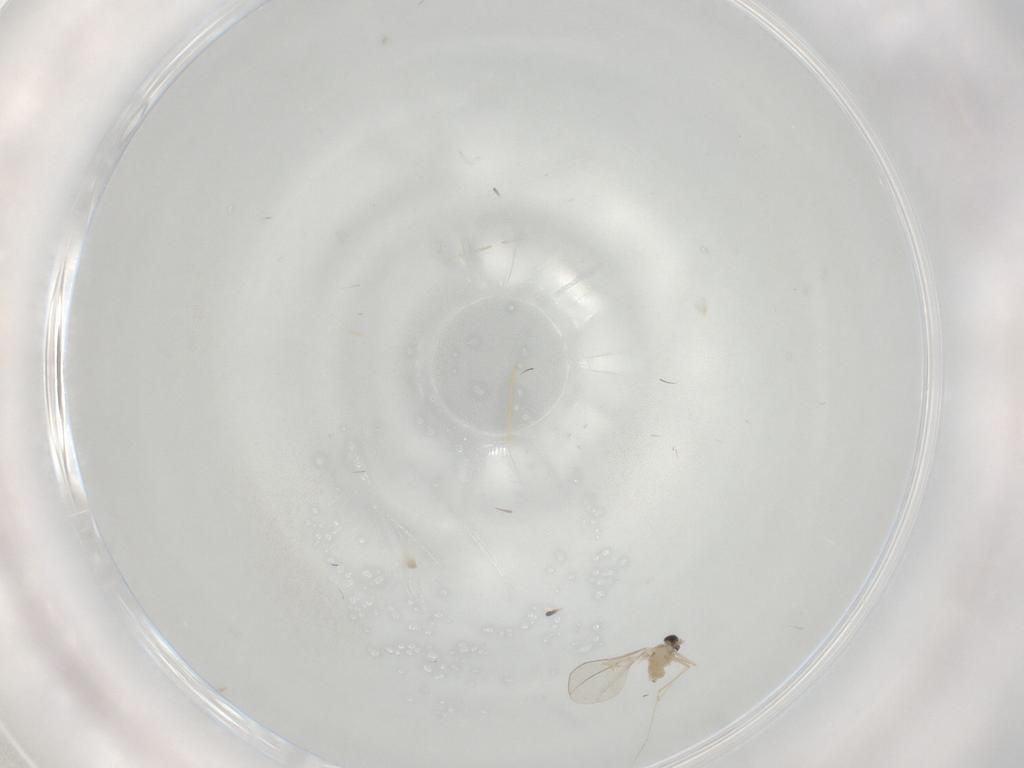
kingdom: Animalia
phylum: Arthropoda
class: Insecta
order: Diptera
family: Cecidomyiidae
